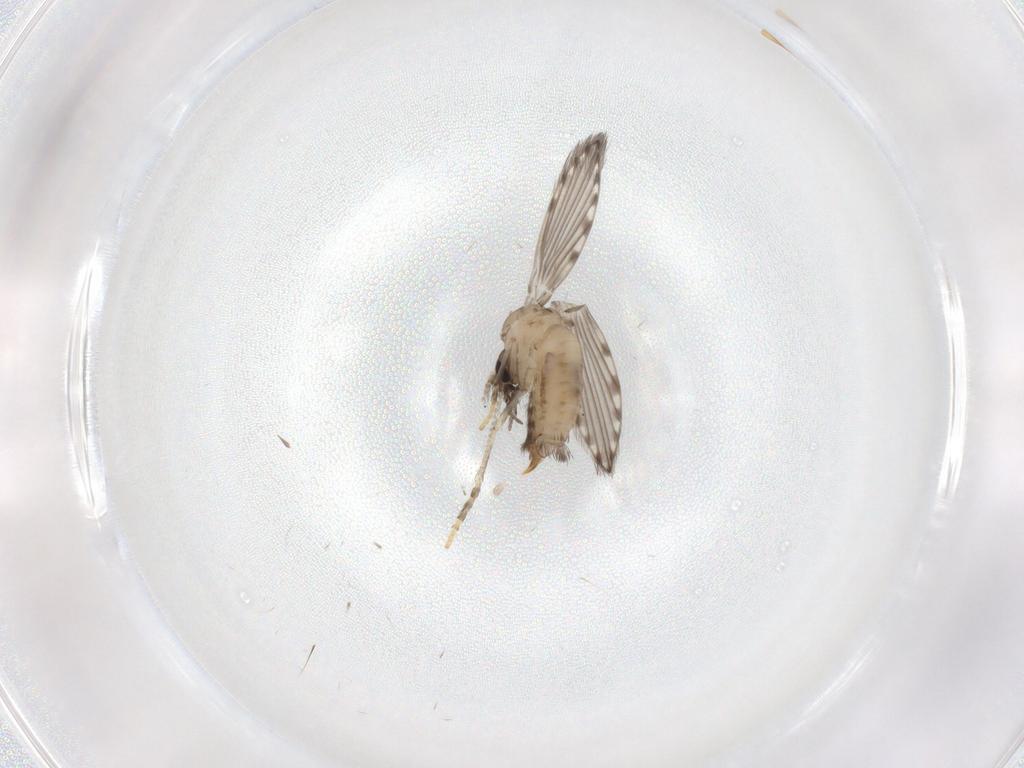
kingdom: Animalia
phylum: Arthropoda
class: Insecta
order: Diptera
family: Psychodidae
